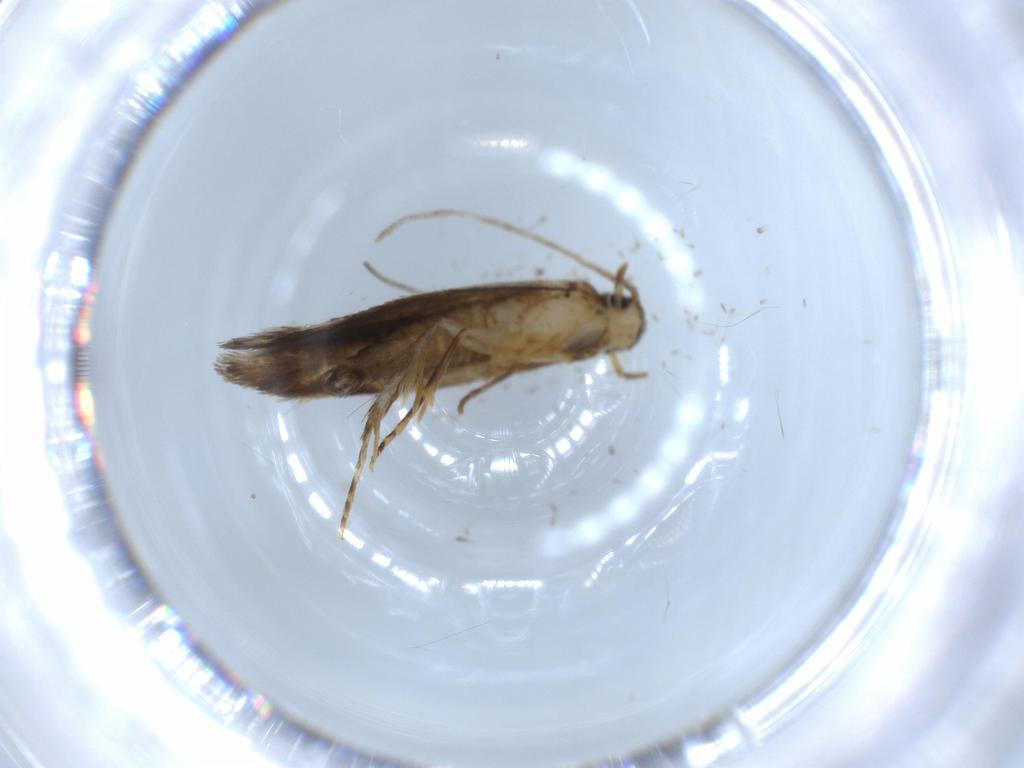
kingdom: Animalia
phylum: Arthropoda
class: Insecta
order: Lepidoptera
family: Tineidae
